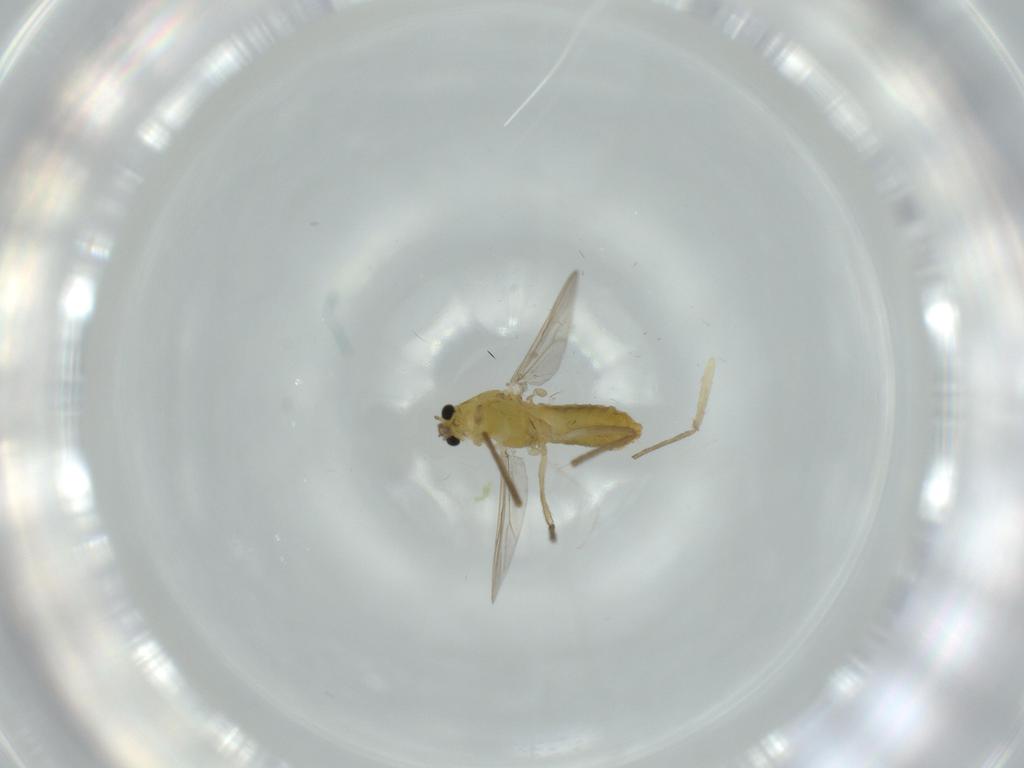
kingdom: Animalia
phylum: Arthropoda
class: Insecta
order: Diptera
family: Chironomidae
